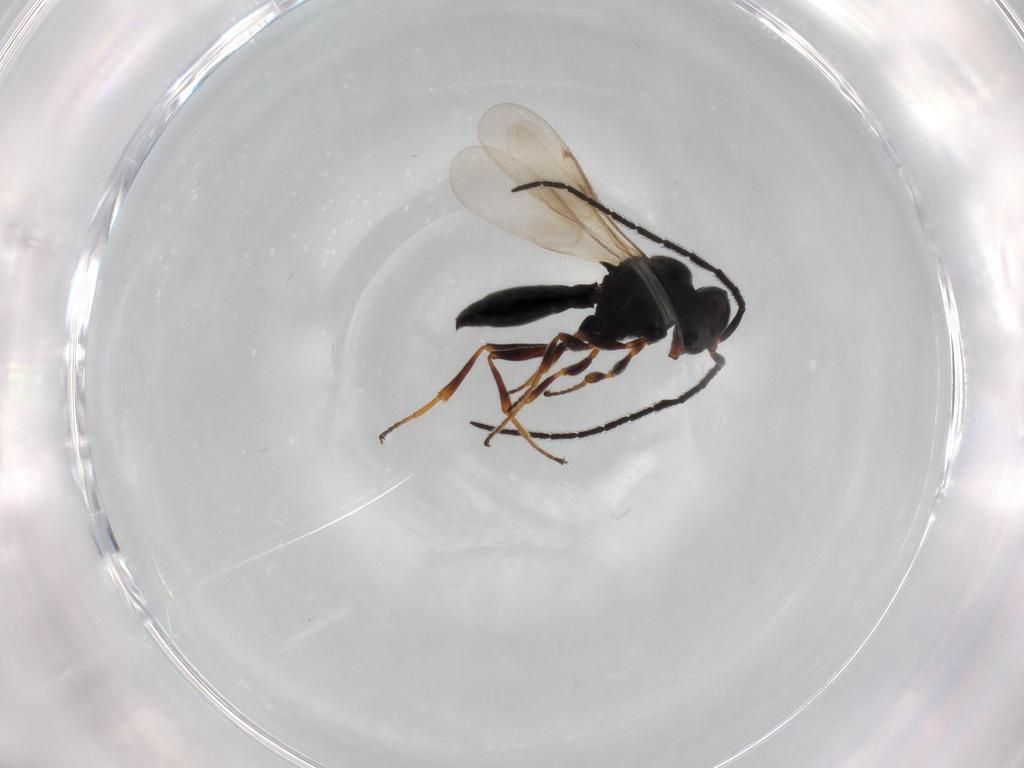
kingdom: Animalia
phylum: Arthropoda
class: Insecta
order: Hymenoptera
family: Scelionidae
